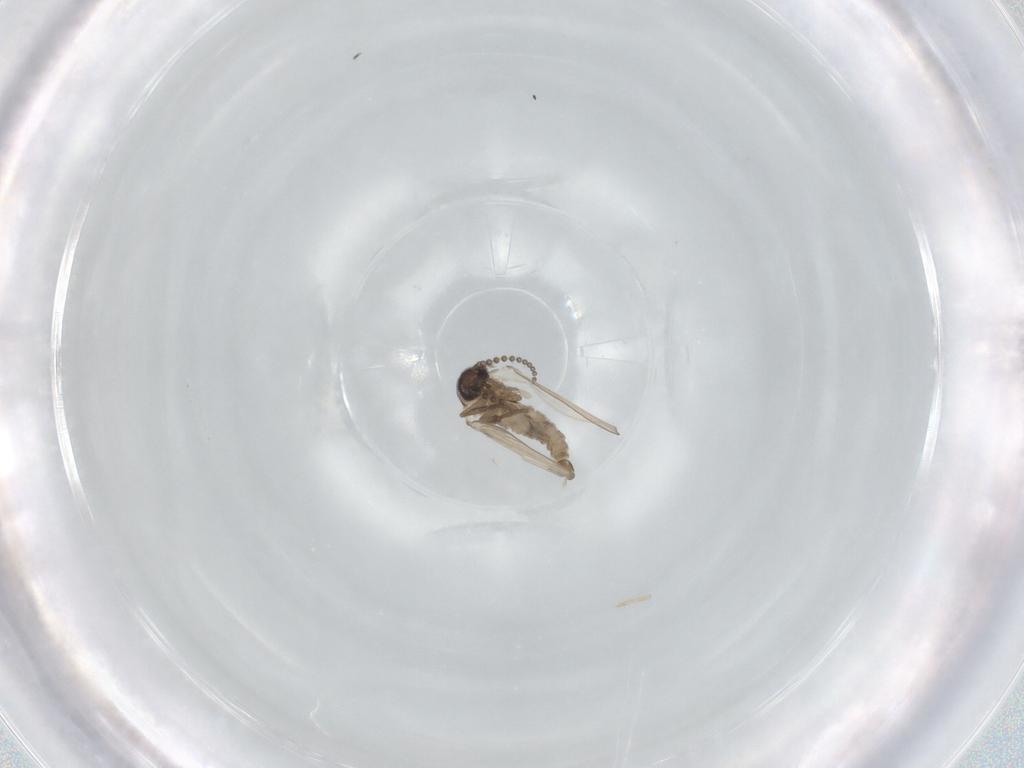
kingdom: Animalia
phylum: Arthropoda
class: Insecta
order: Diptera
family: Psychodidae
